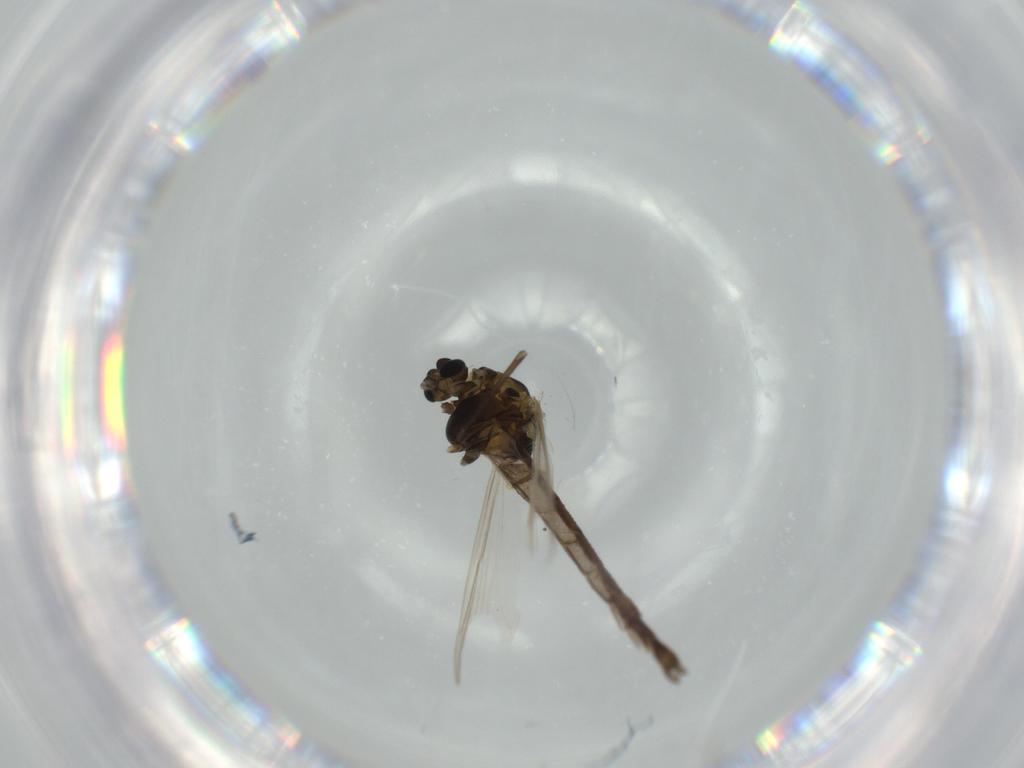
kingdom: Animalia
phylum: Arthropoda
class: Insecta
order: Diptera
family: Chironomidae
